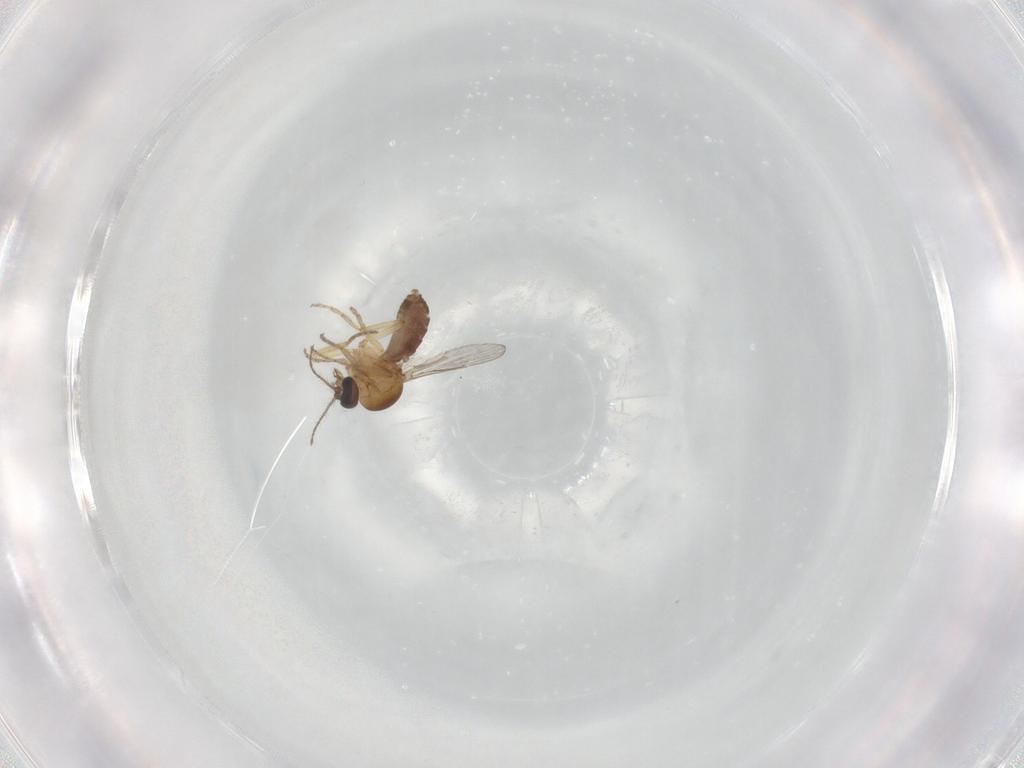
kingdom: Animalia
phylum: Arthropoda
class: Insecta
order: Diptera
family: Ceratopogonidae
